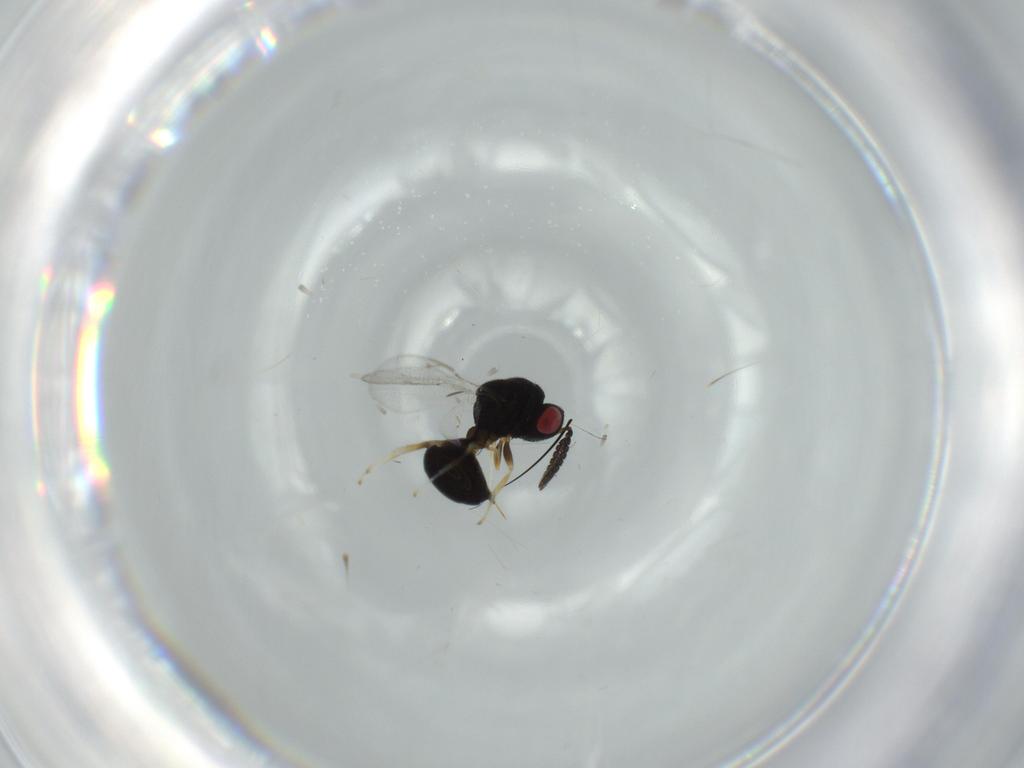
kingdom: Animalia
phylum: Arthropoda
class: Insecta
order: Hymenoptera
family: Eurytomidae
